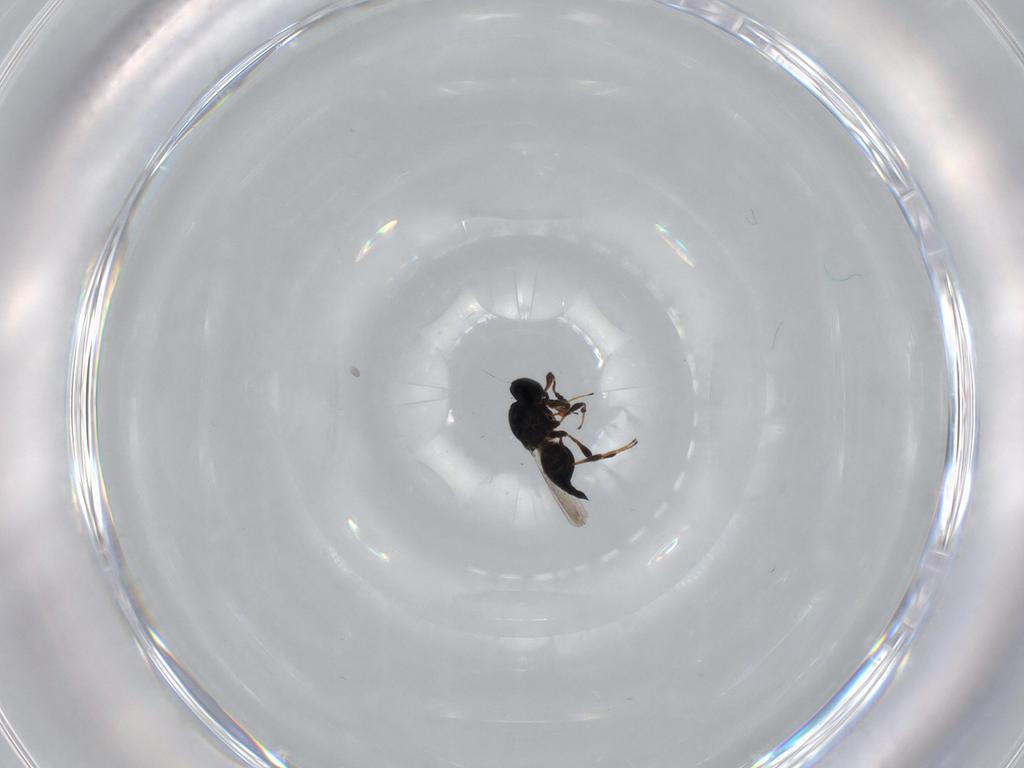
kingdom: Animalia
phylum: Arthropoda
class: Insecta
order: Hymenoptera
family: Platygastridae
